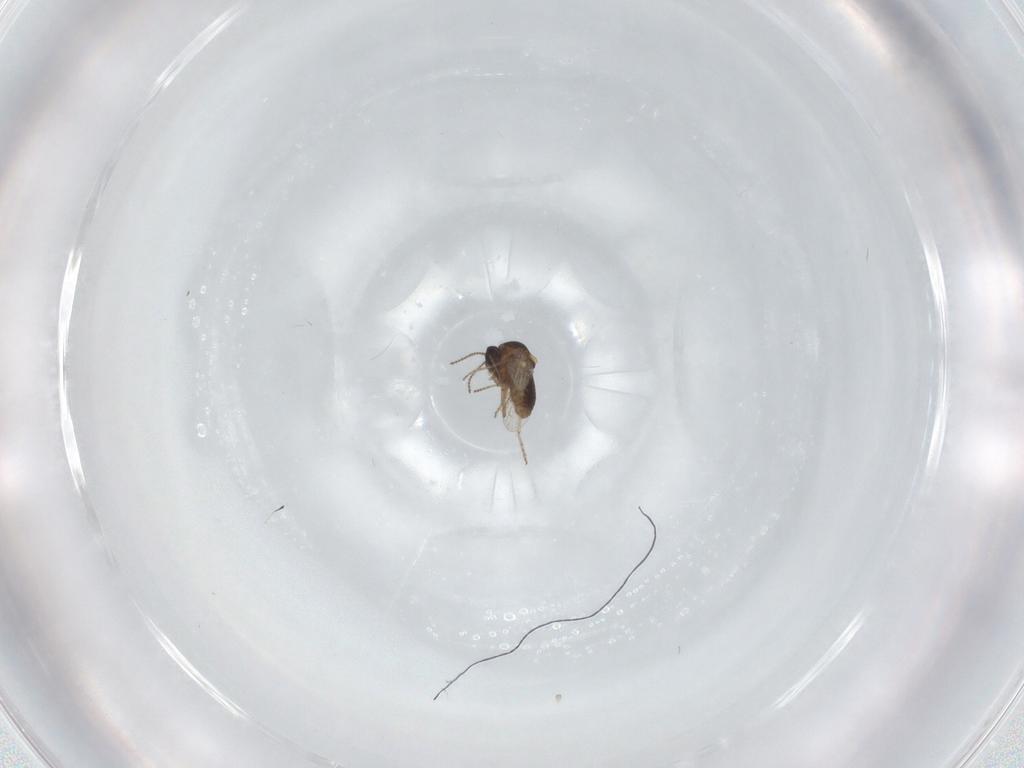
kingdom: Animalia
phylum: Arthropoda
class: Insecta
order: Diptera
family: Ceratopogonidae
